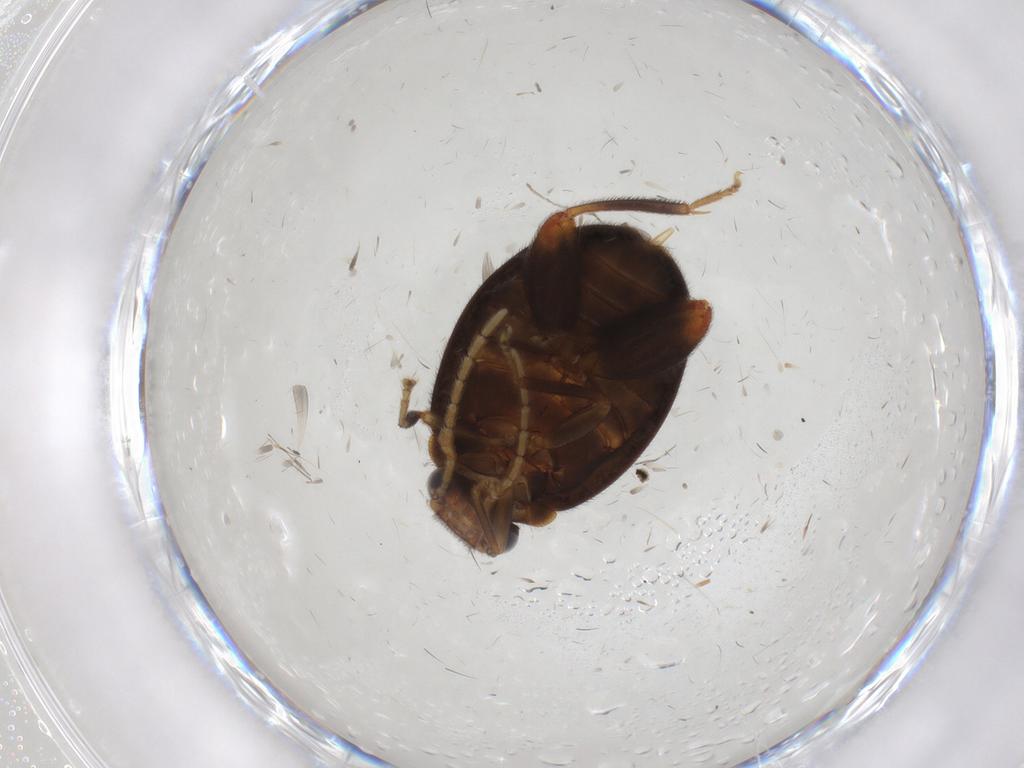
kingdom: Animalia
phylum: Arthropoda
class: Insecta
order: Coleoptera
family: Scirtidae
